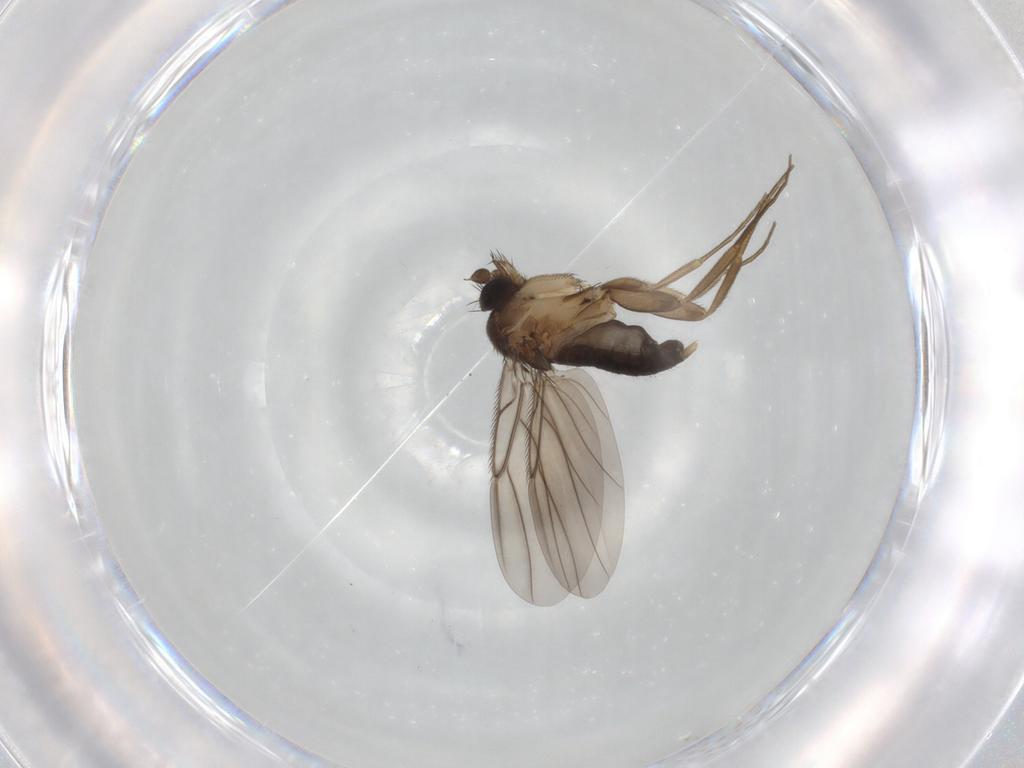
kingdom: Animalia
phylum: Arthropoda
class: Insecta
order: Diptera
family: Phoridae
